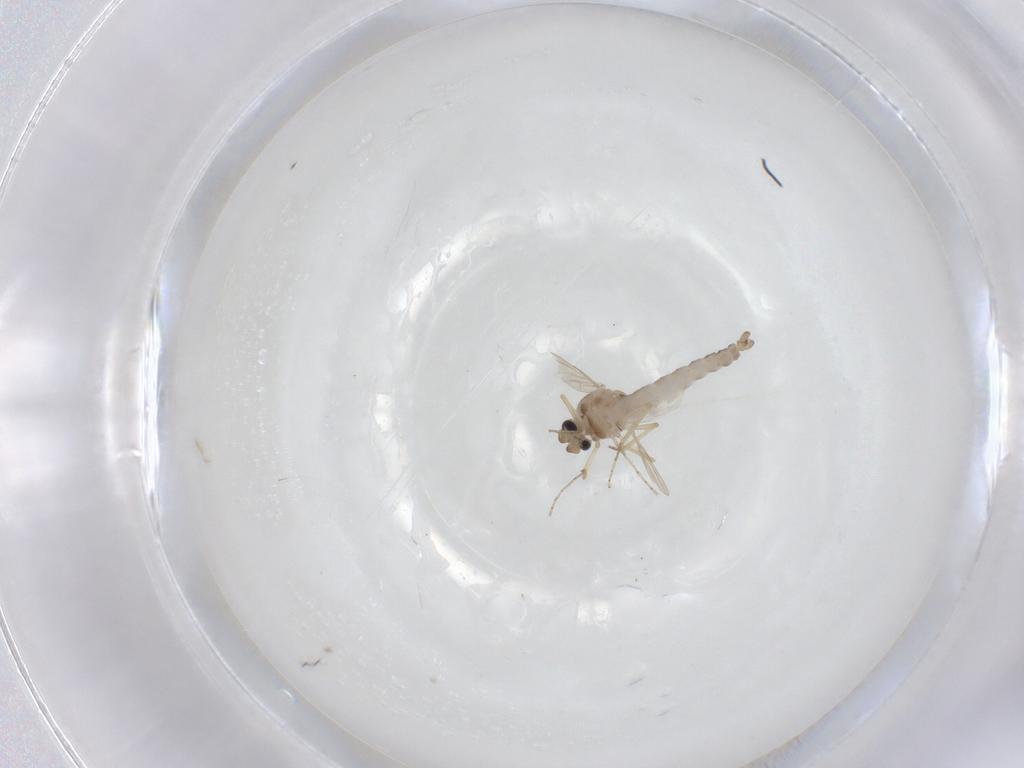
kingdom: Animalia
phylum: Arthropoda
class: Insecta
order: Diptera
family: Ceratopogonidae
